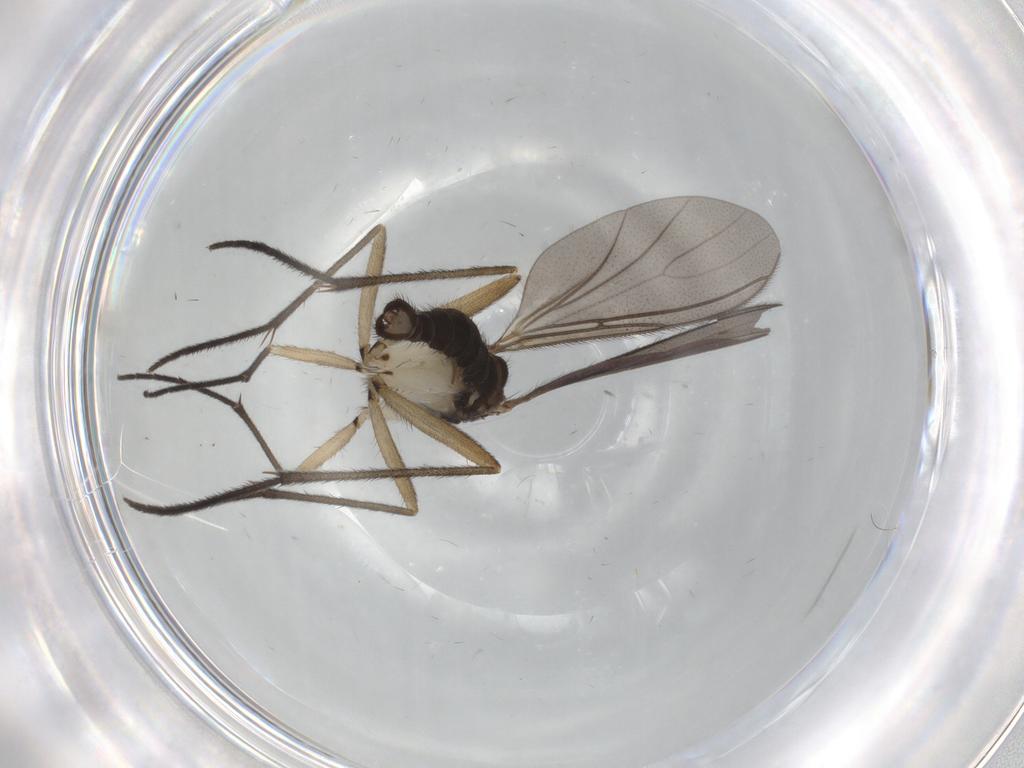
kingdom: Animalia
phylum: Arthropoda
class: Insecta
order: Diptera
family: Sciaridae
